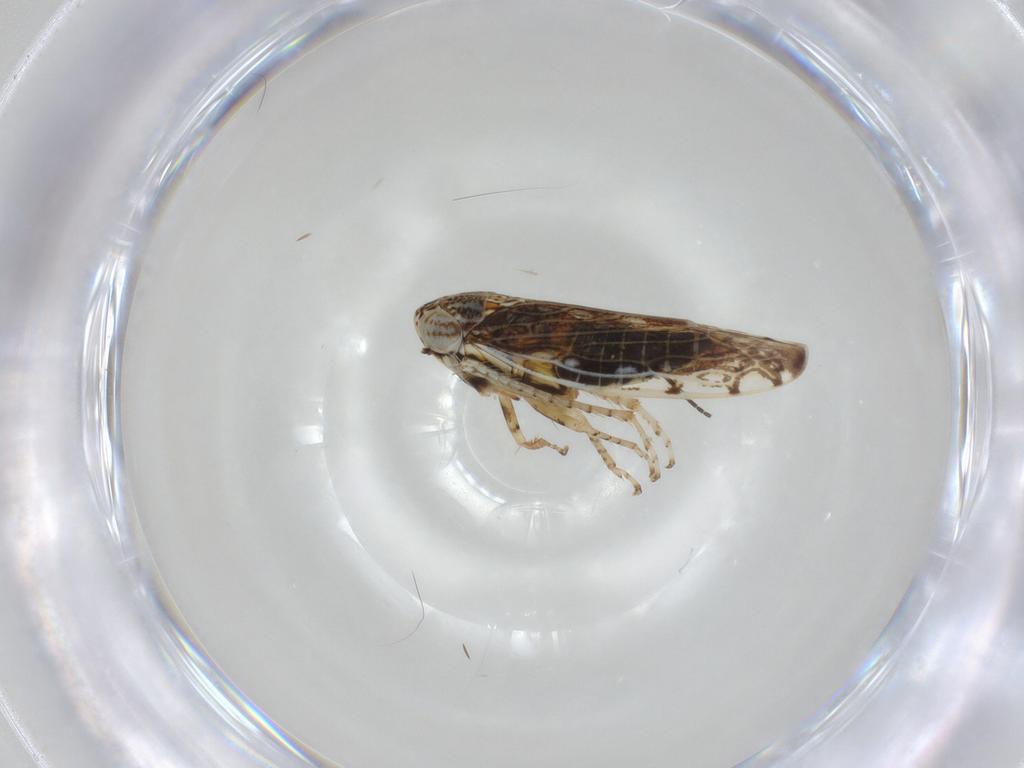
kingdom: Animalia
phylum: Arthropoda
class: Insecta
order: Hemiptera
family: Cicadellidae
